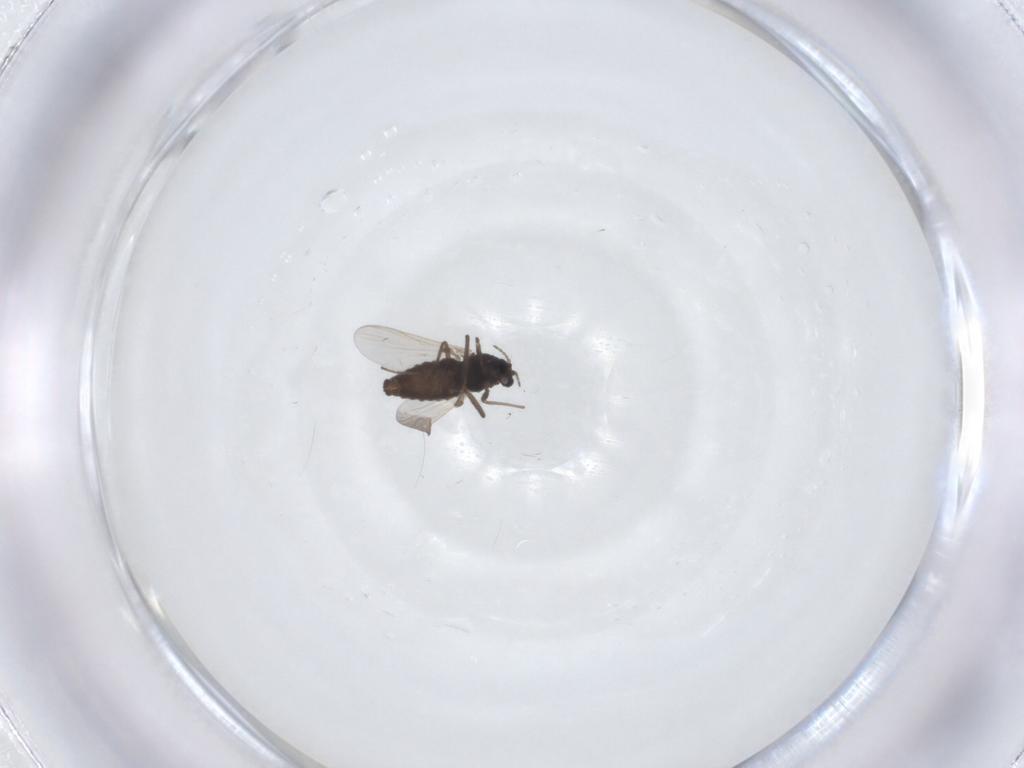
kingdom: Animalia
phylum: Arthropoda
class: Insecta
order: Diptera
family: Chironomidae
